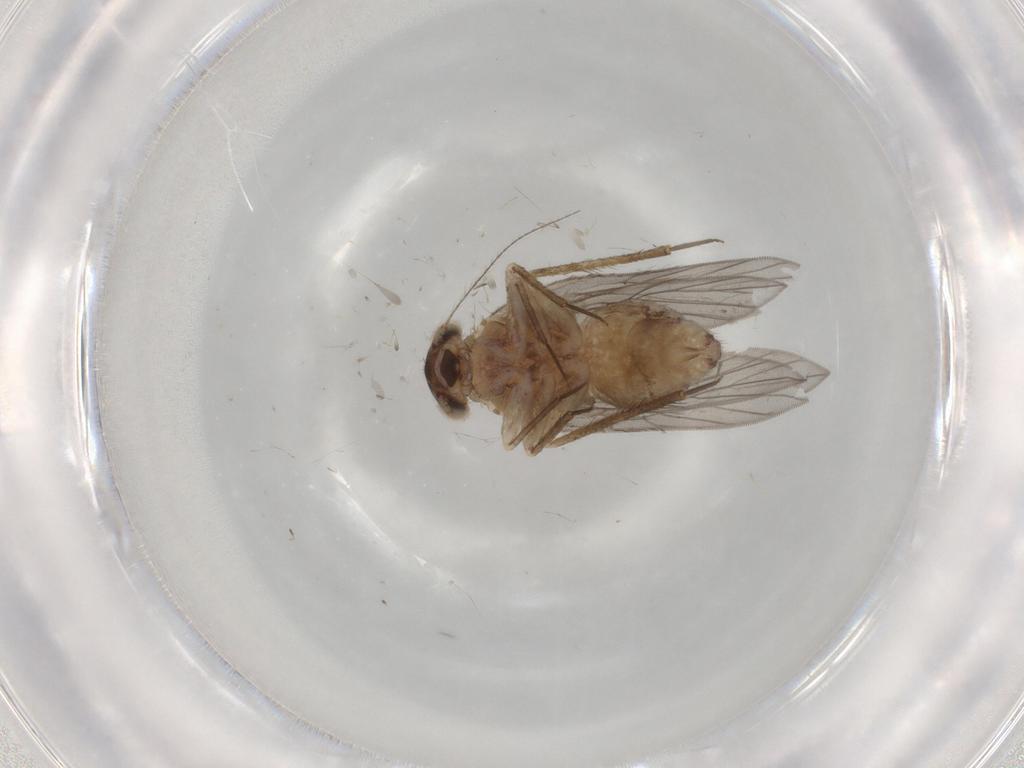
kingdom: Animalia
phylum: Arthropoda
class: Insecta
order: Psocodea
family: Lepidopsocidae
